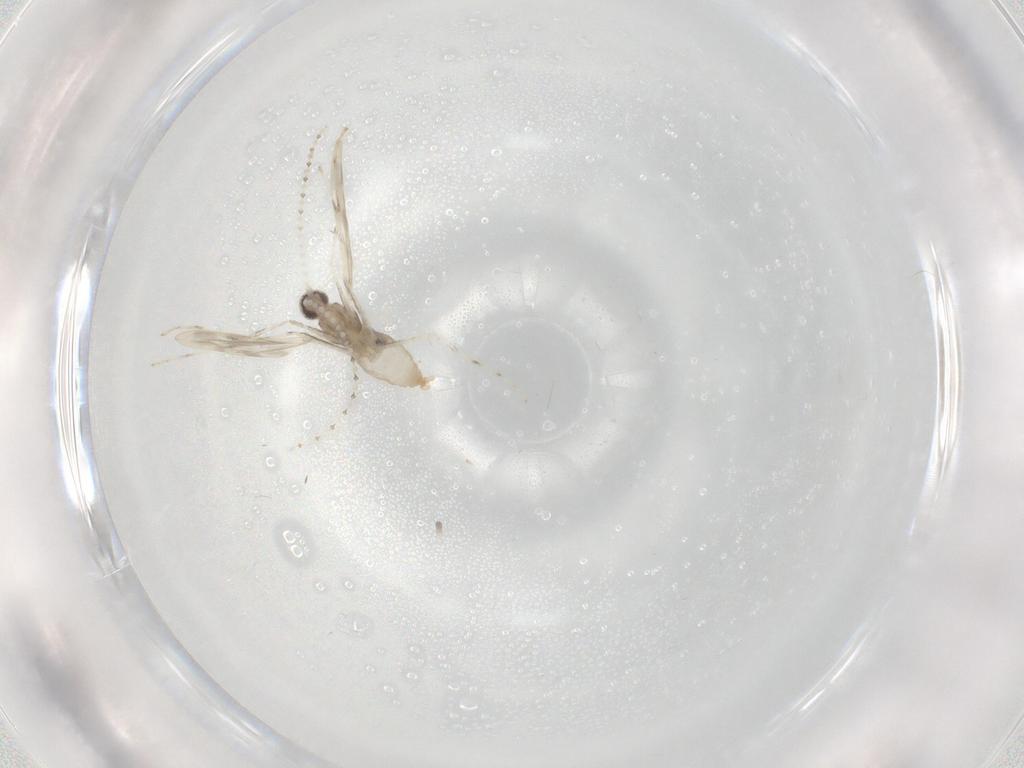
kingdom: Animalia
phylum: Arthropoda
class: Insecta
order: Diptera
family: Cecidomyiidae
